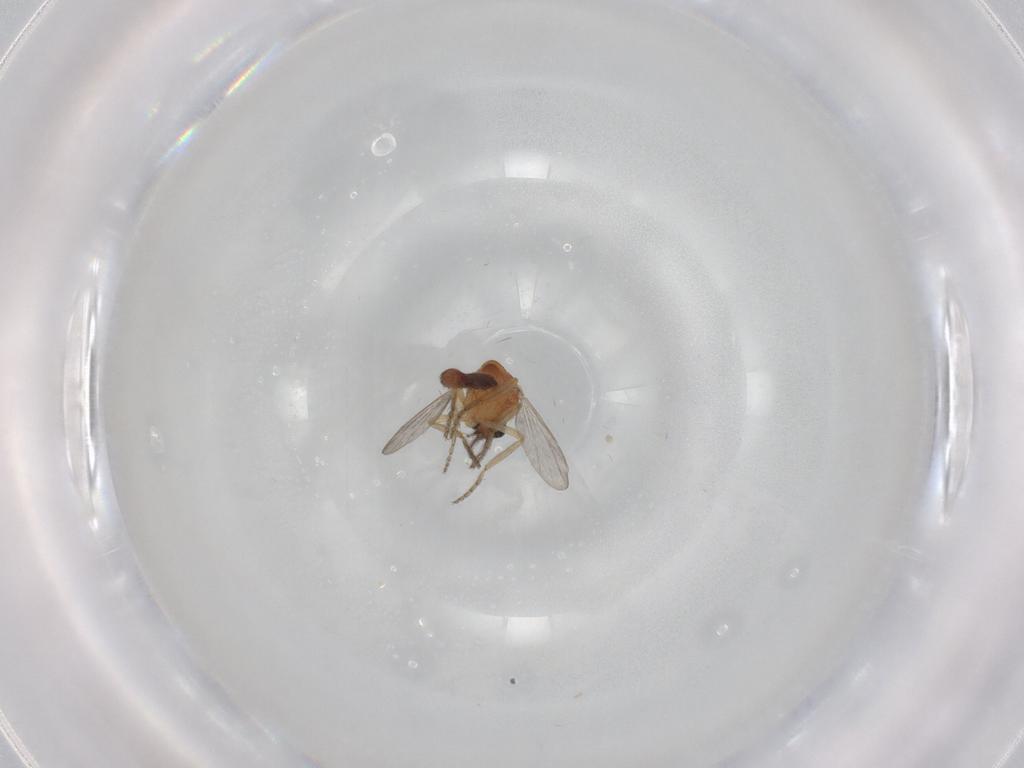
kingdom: Animalia
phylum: Arthropoda
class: Insecta
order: Diptera
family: Ceratopogonidae
